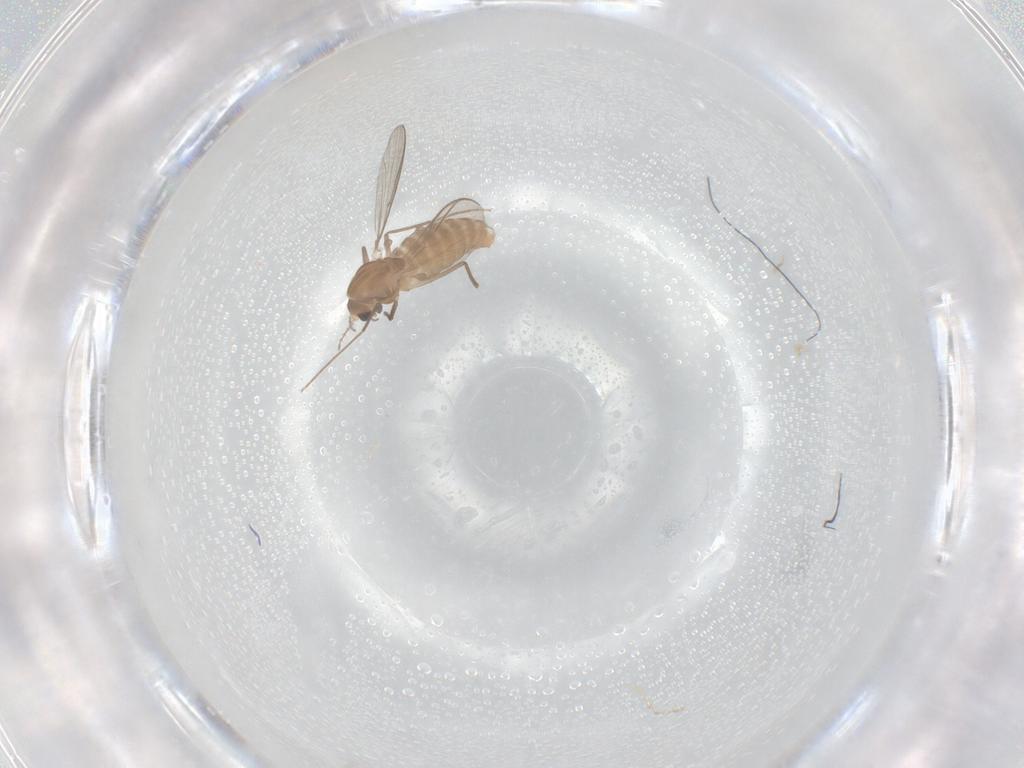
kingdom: Animalia
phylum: Arthropoda
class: Insecta
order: Diptera
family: Chironomidae
